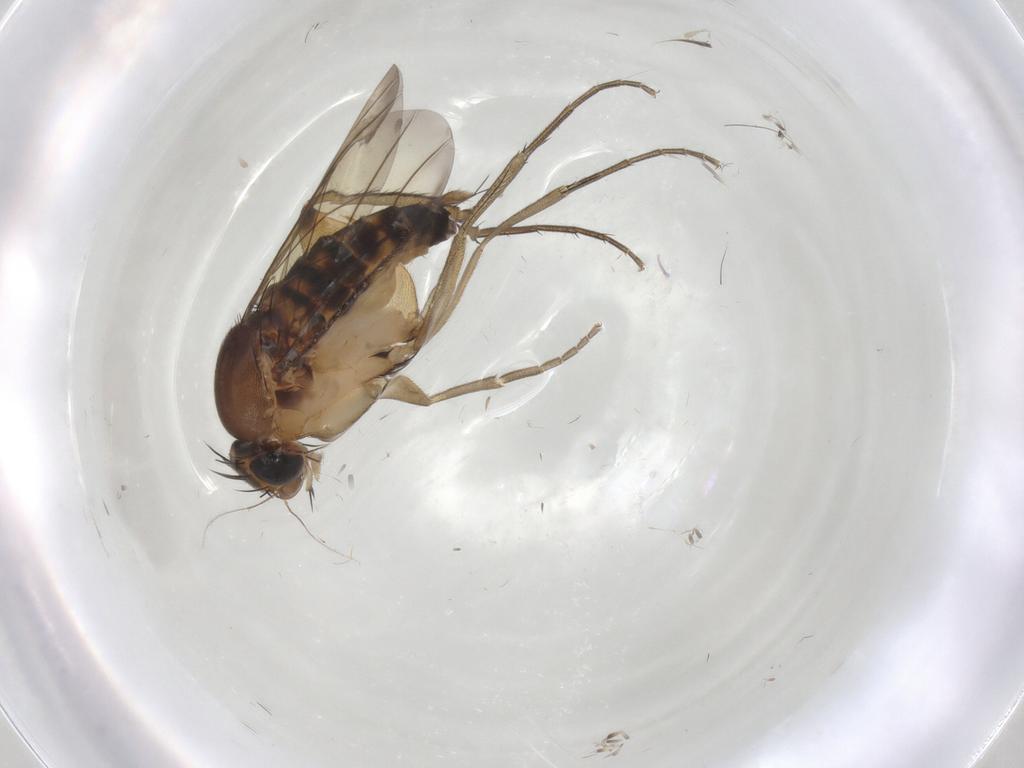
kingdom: Animalia
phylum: Arthropoda
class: Insecta
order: Diptera
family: Phoridae
